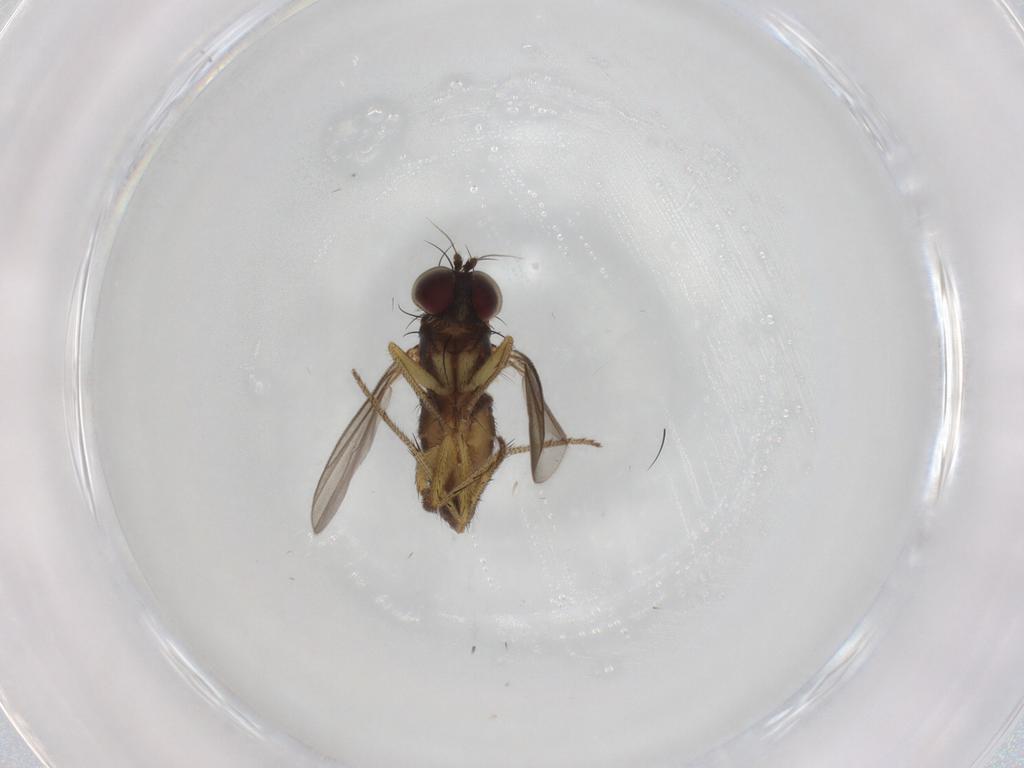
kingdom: Animalia
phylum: Arthropoda
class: Insecta
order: Diptera
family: Dolichopodidae
